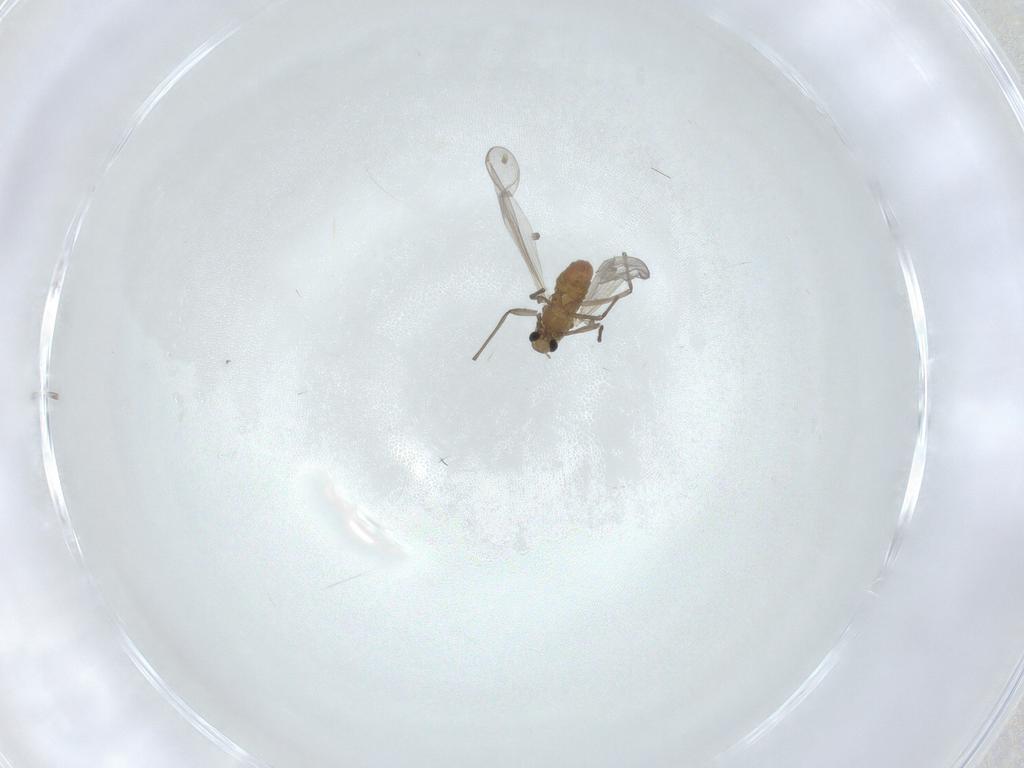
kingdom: Animalia
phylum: Arthropoda
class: Insecta
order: Diptera
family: Chironomidae
